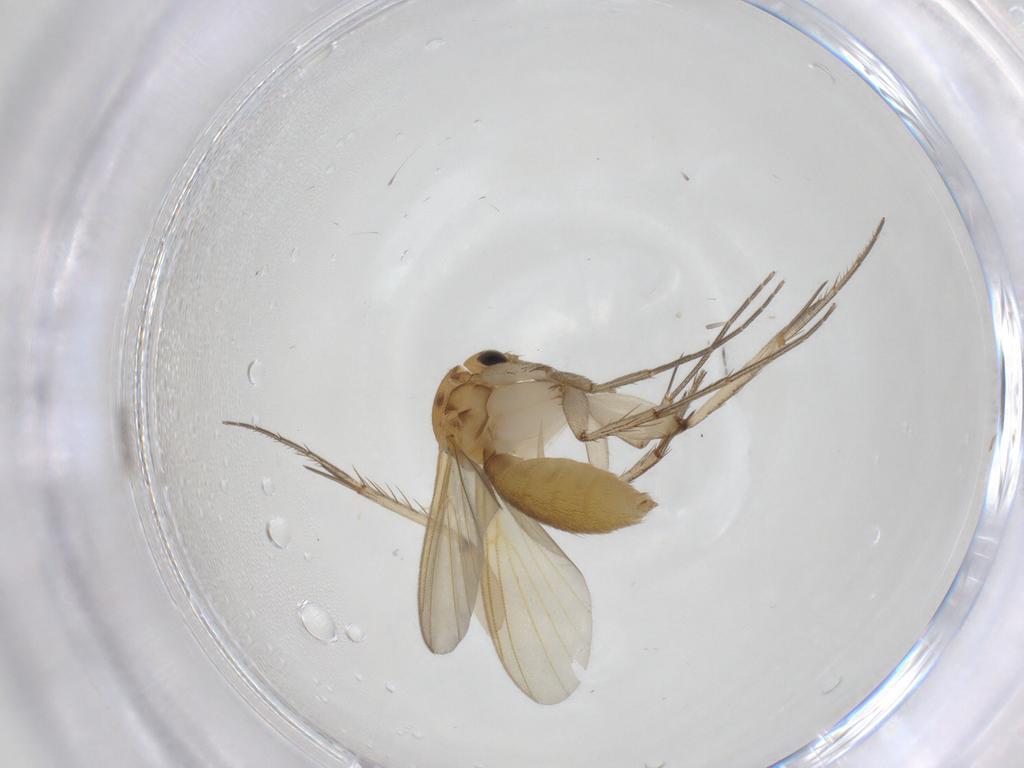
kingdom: Animalia
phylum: Arthropoda
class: Insecta
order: Diptera
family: Mycetophilidae
